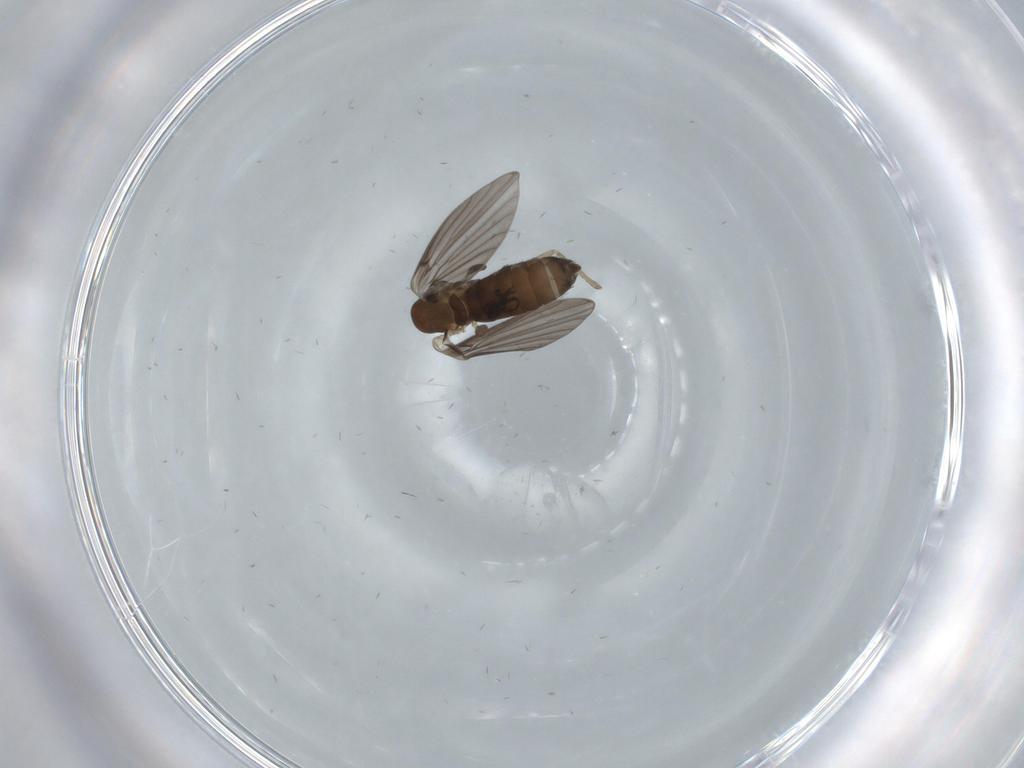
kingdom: Animalia
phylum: Arthropoda
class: Insecta
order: Diptera
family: Psychodidae
